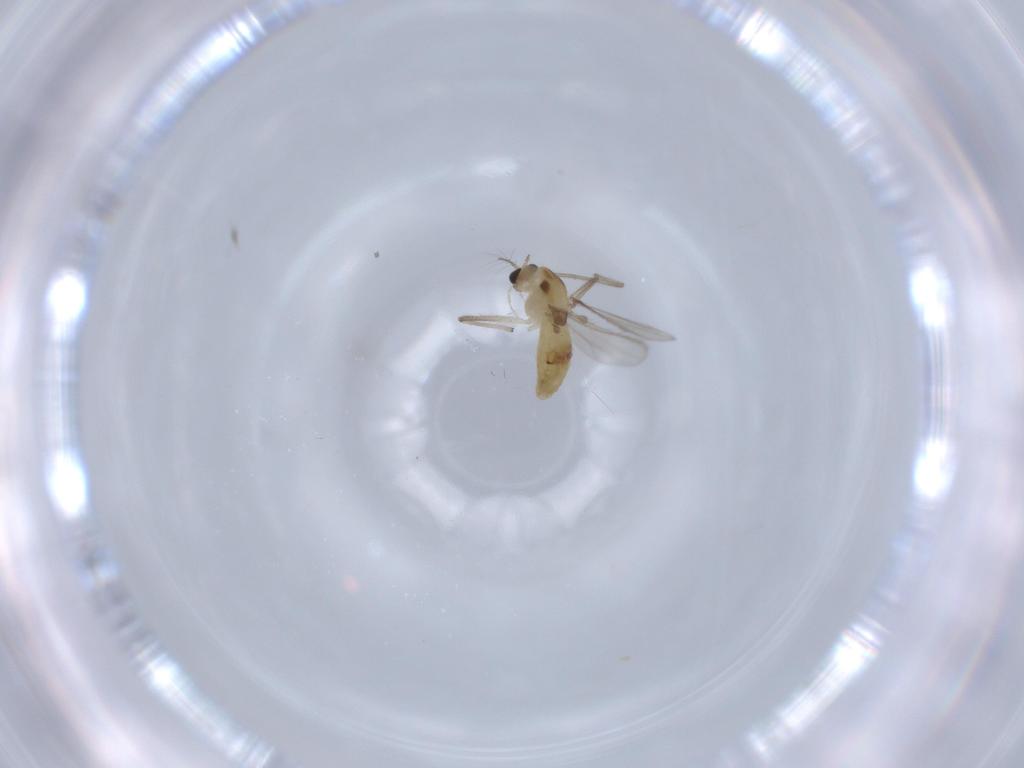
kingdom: Animalia
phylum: Arthropoda
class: Insecta
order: Diptera
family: Chironomidae
